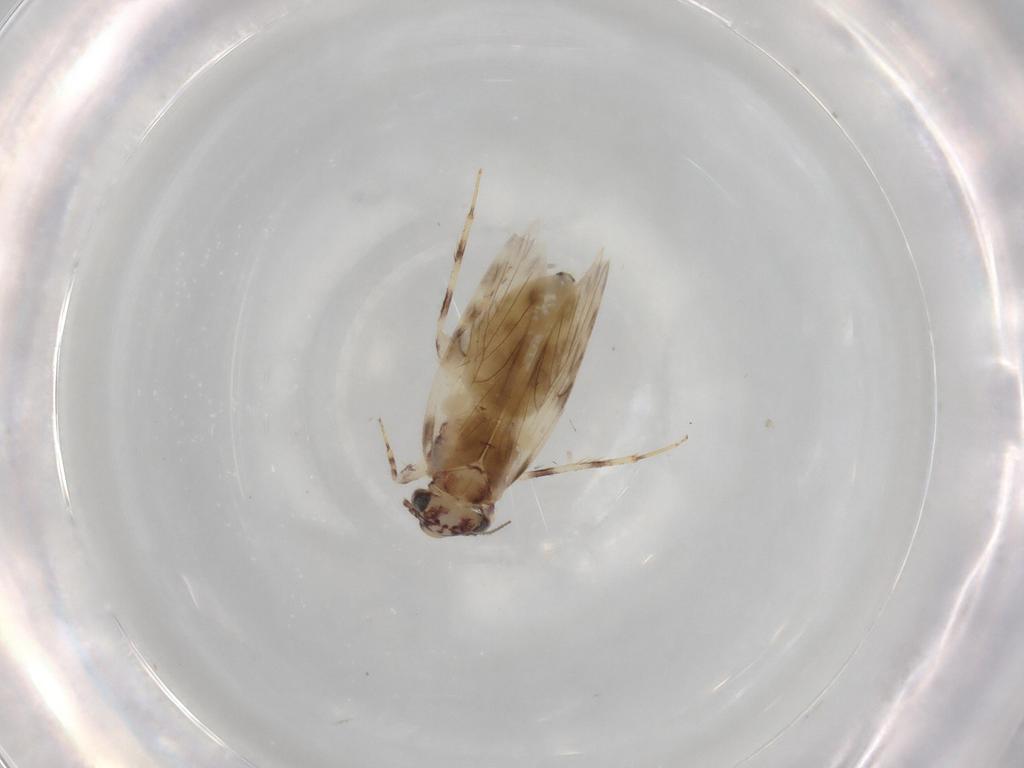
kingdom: Animalia
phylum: Arthropoda
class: Insecta
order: Psocodea
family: Lepidopsocidae
